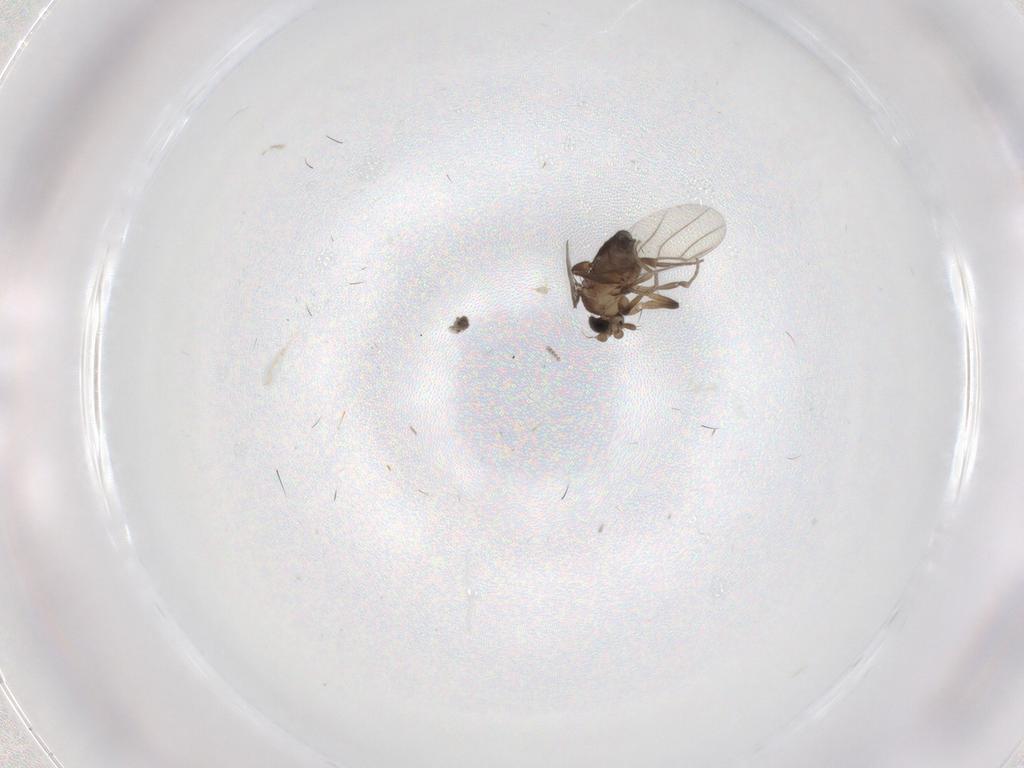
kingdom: Animalia
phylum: Arthropoda
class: Insecta
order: Diptera
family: Phoridae
